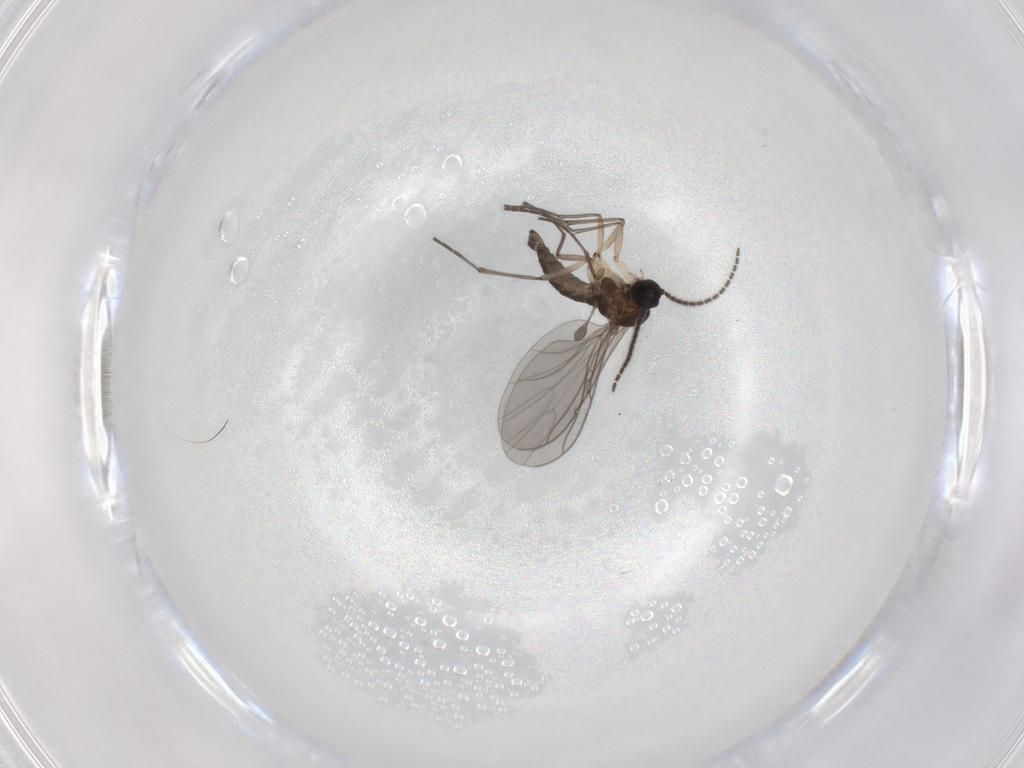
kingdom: Animalia
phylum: Arthropoda
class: Insecta
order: Diptera
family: Sciaridae
